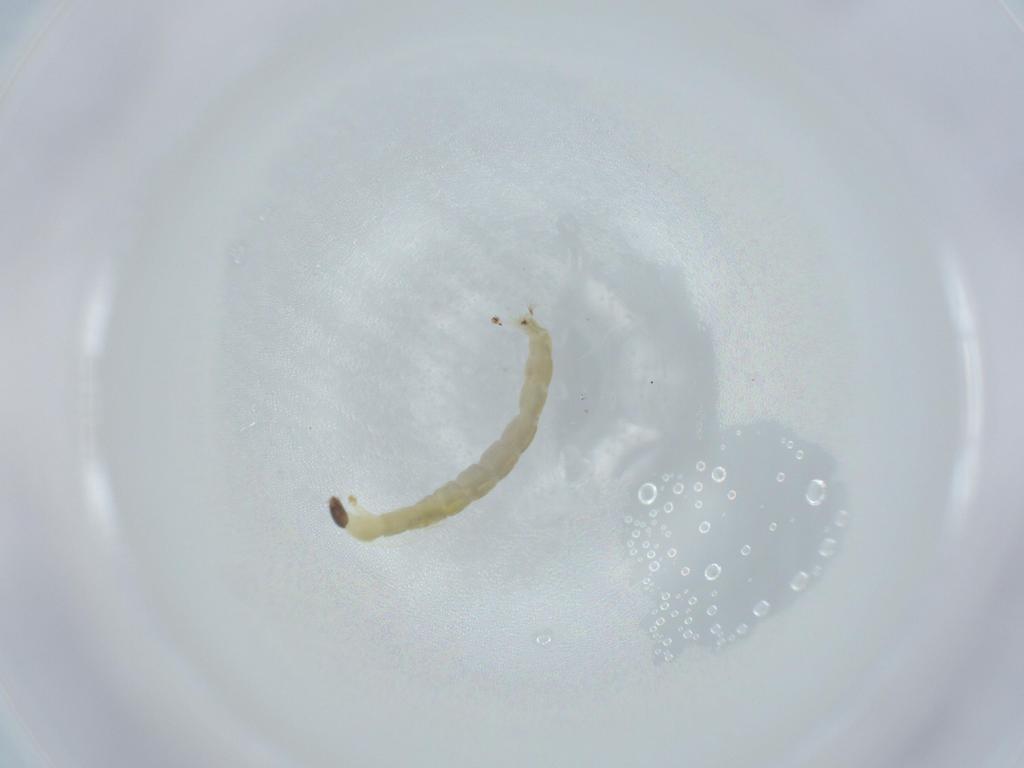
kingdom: Animalia
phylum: Arthropoda
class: Insecta
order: Diptera
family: Chironomidae
